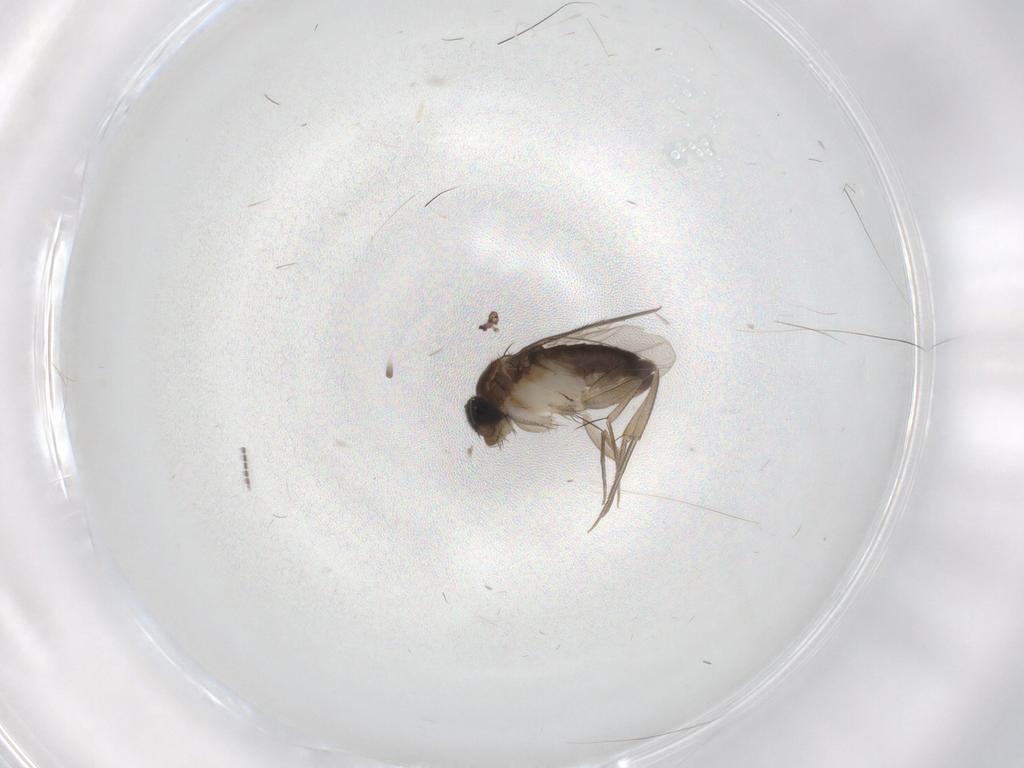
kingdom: Animalia
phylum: Arthropoda
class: Insecta
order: Diptera
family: Phoridae
